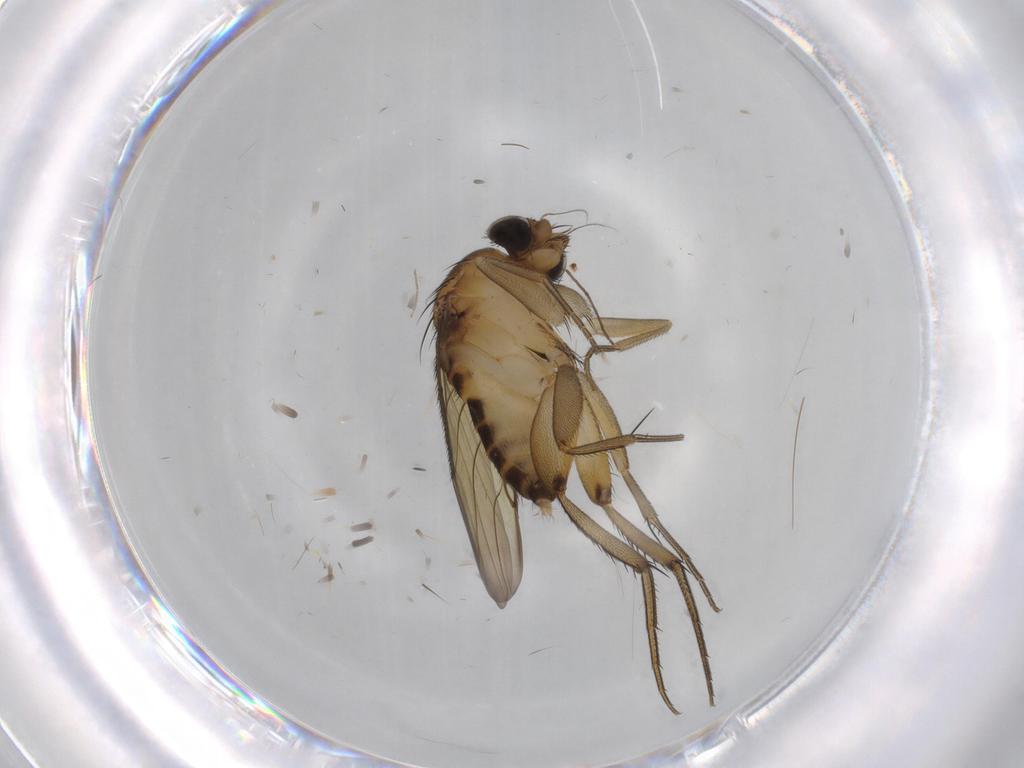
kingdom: Animalia
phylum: Arthropoda
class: Insecta
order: Diptera
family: Phoridae
